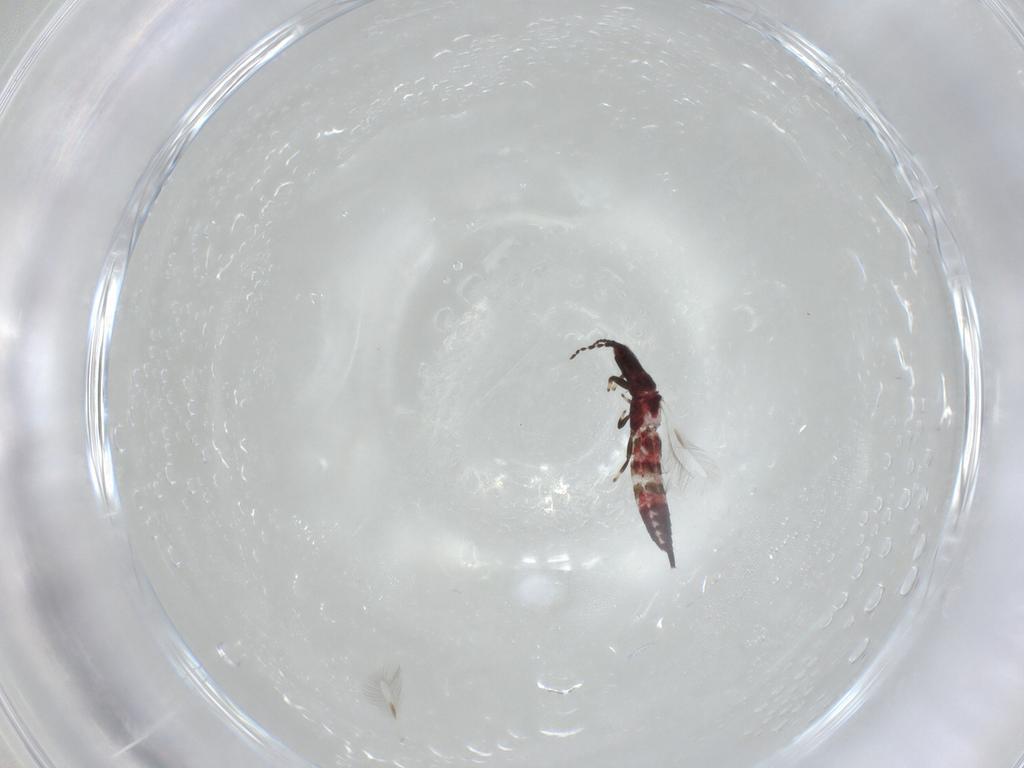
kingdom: Animalia
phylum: Arthropoda
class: Insecta
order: Thysanoptera
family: Phlaeothripidae
